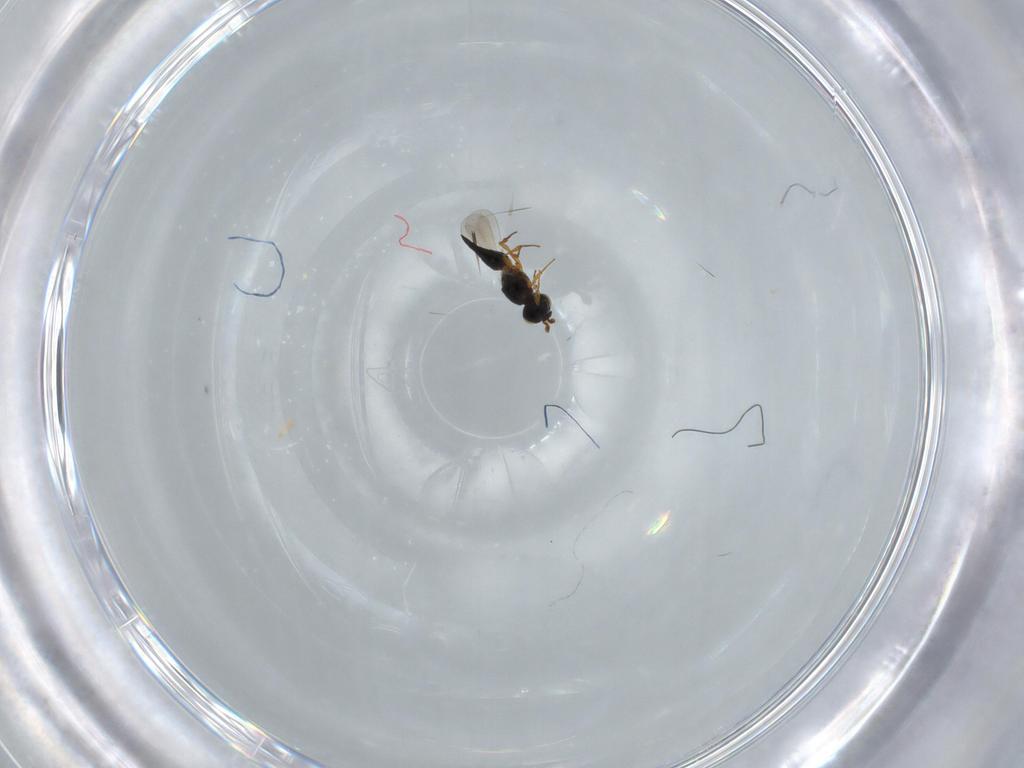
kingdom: Animalia
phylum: Arthropoda
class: Insecta
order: Hymenoptera
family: Platygastridae
